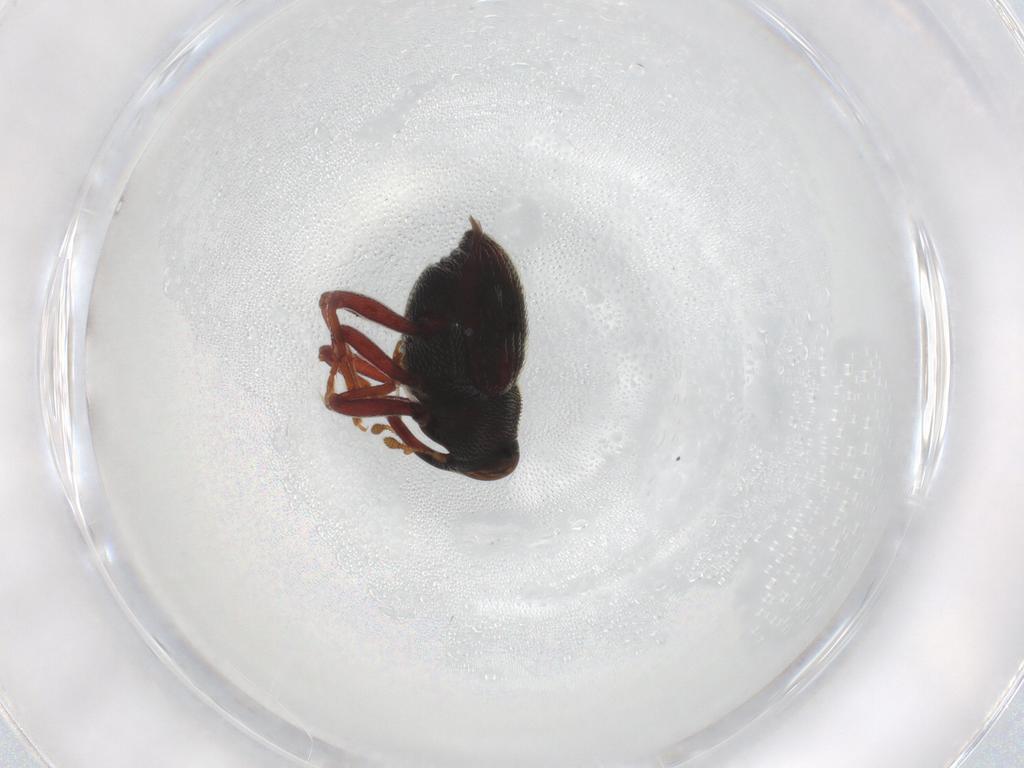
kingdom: Animalia
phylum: Arthropoda
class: Insecta
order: Coleoptera
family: Curculionidae
